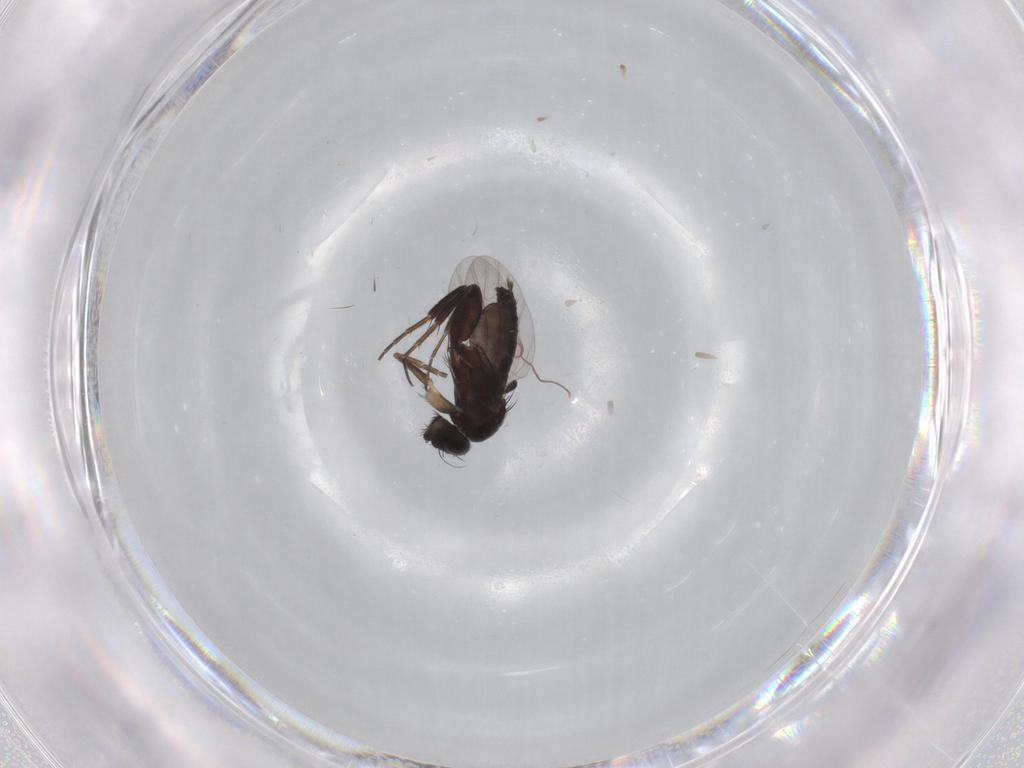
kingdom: Animalia
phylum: Arthropoda
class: Insecta
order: Diptera
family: Phoridae
